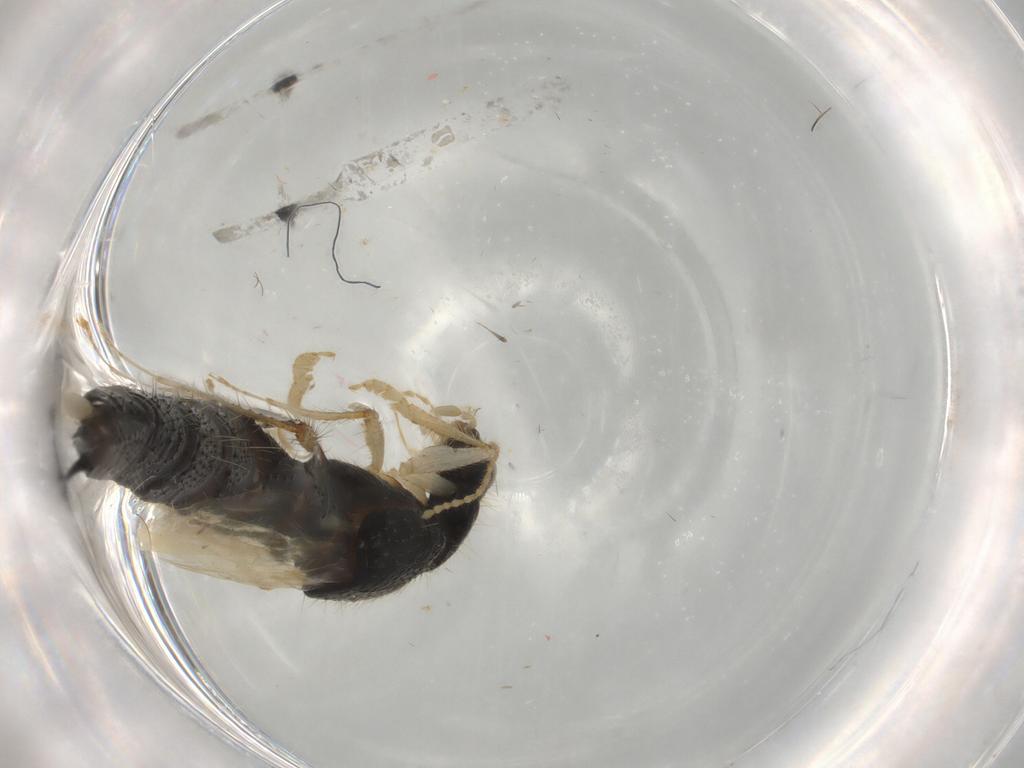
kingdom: Animalia
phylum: Arthropoda
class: Insecta
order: Coleoptera
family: Staphylinidae
